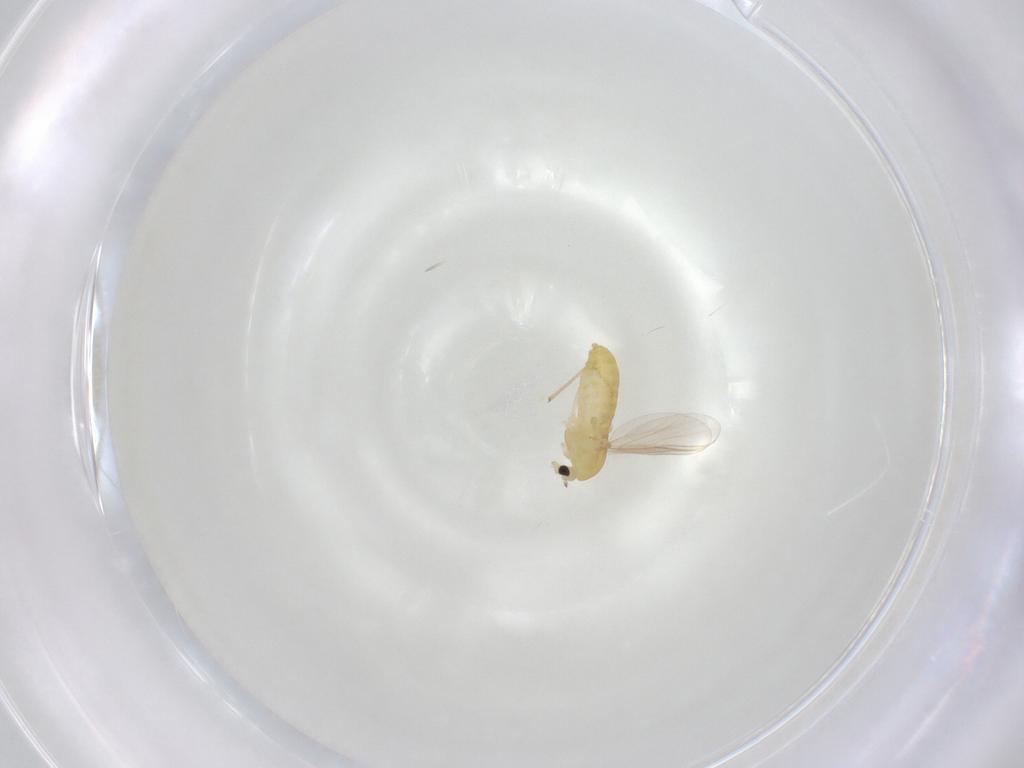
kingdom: Animalia
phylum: Arthropoda
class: Insecta
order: Diptera
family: Chironomidae
